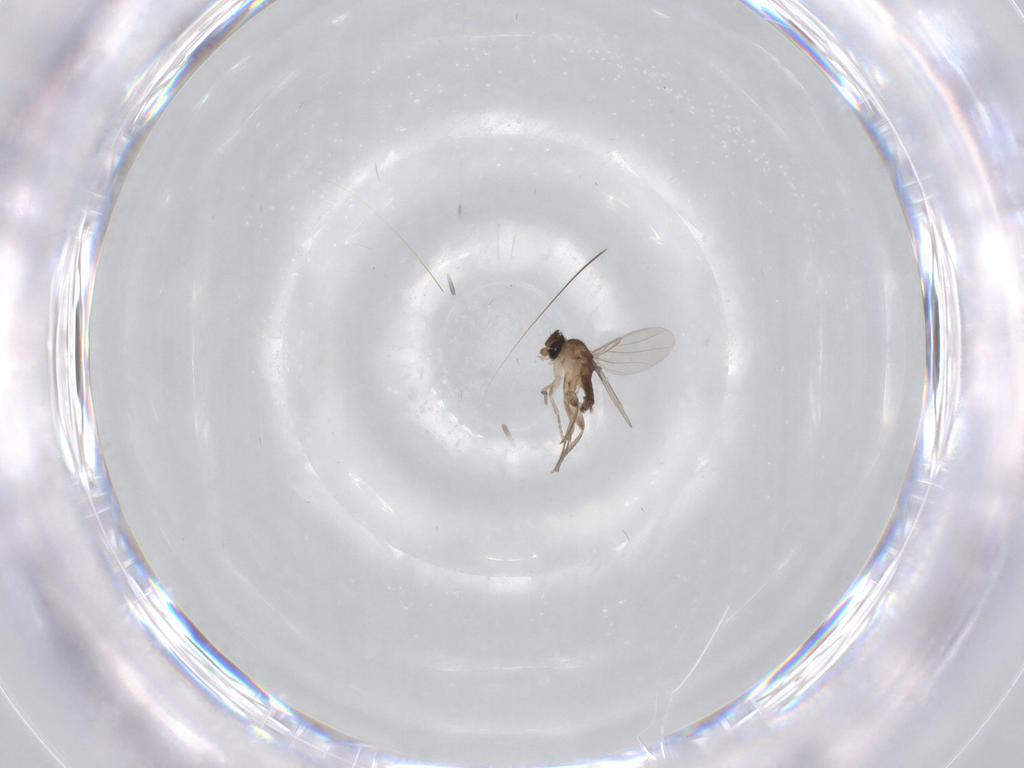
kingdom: Animalia
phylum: Arthropoda
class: Insecta
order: Diptera
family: Phoridae
